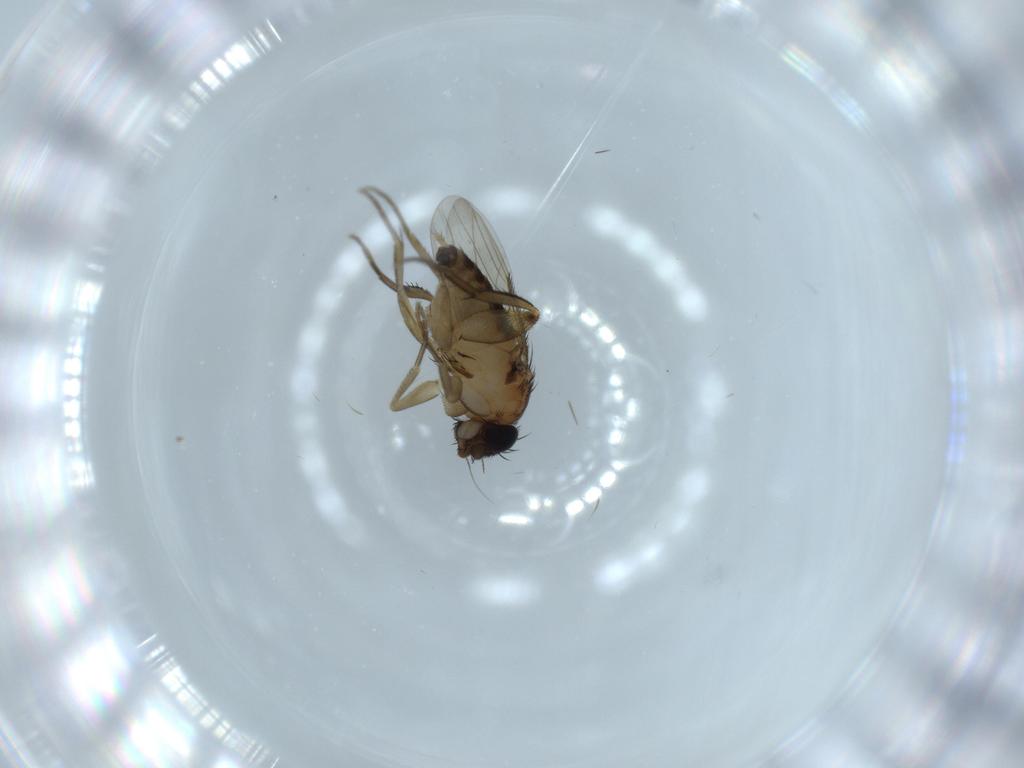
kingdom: Animalia
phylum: Arthropoda
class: Insecta
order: Diptera
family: Phoridae
